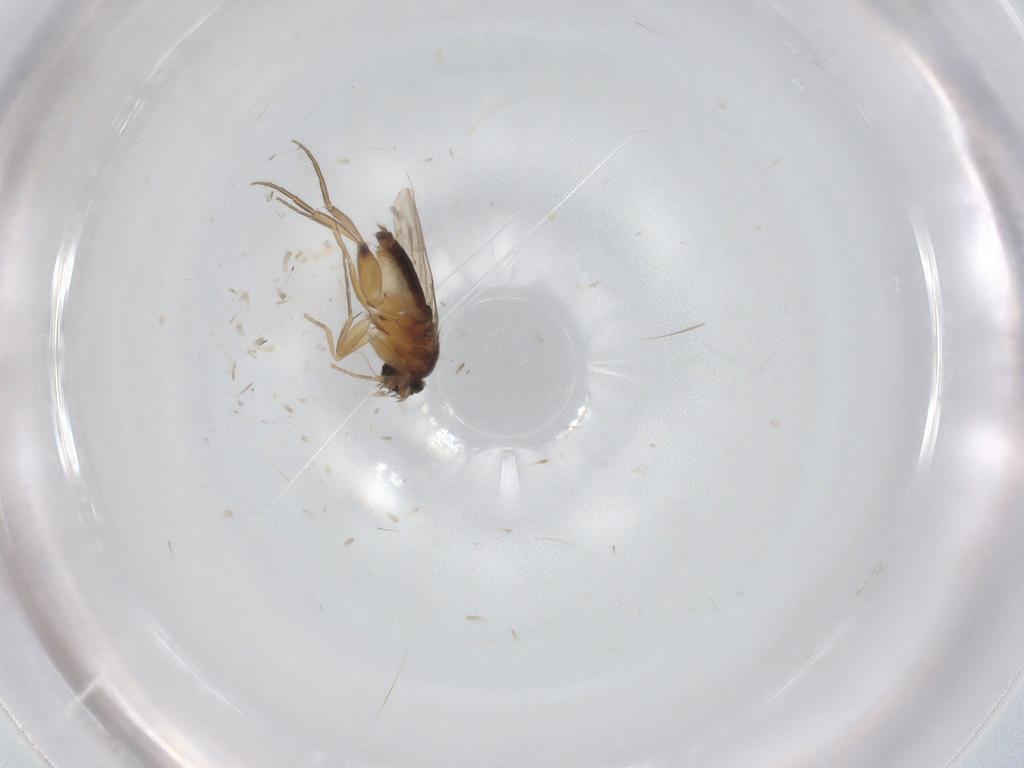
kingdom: Animalia
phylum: Arthropoda
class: Insecta
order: Diptera
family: Phoridae
